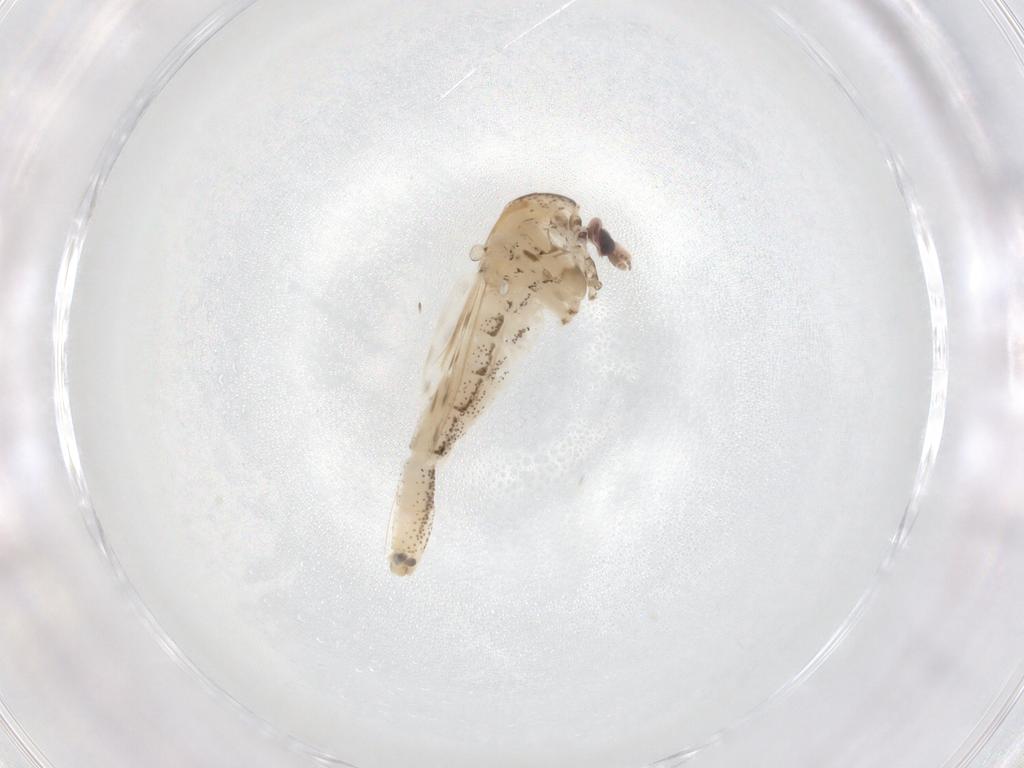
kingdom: Animalia
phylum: Arthropoda
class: Insecta
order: Diptera
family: Chaoboridae
